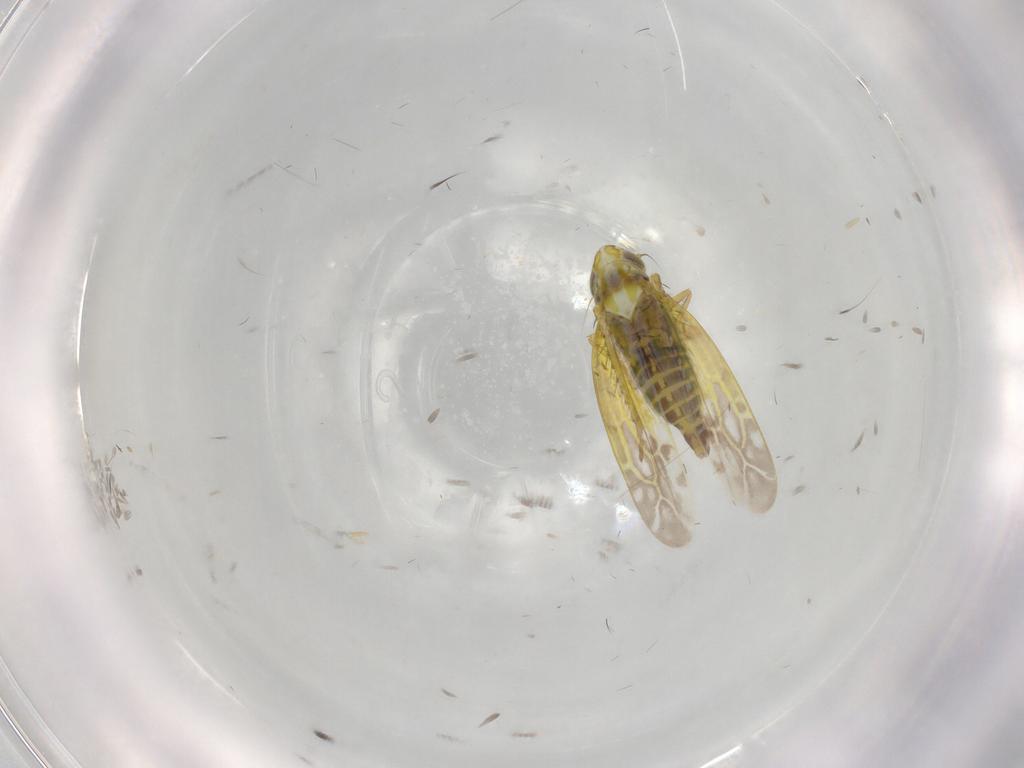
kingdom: Animalia
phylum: Arthropoda
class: Insecta
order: Hemiptera
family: Cicadellidae
